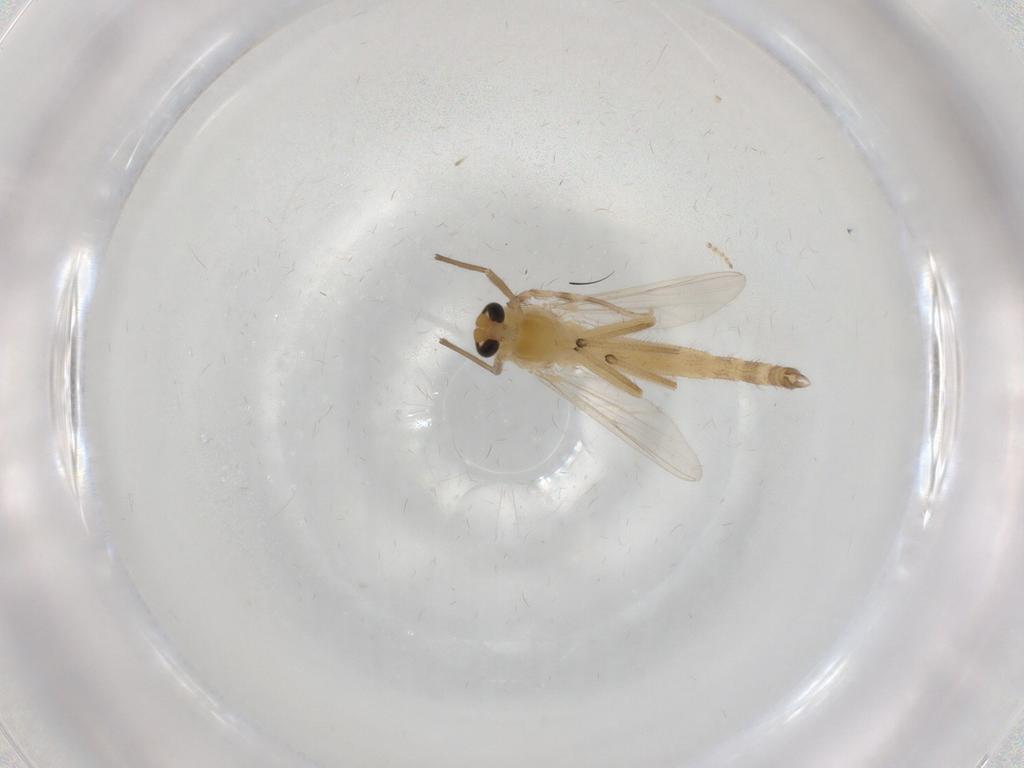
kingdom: Animalia
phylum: Arthropoda
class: Insecta
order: Diptera
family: Chironomidae
